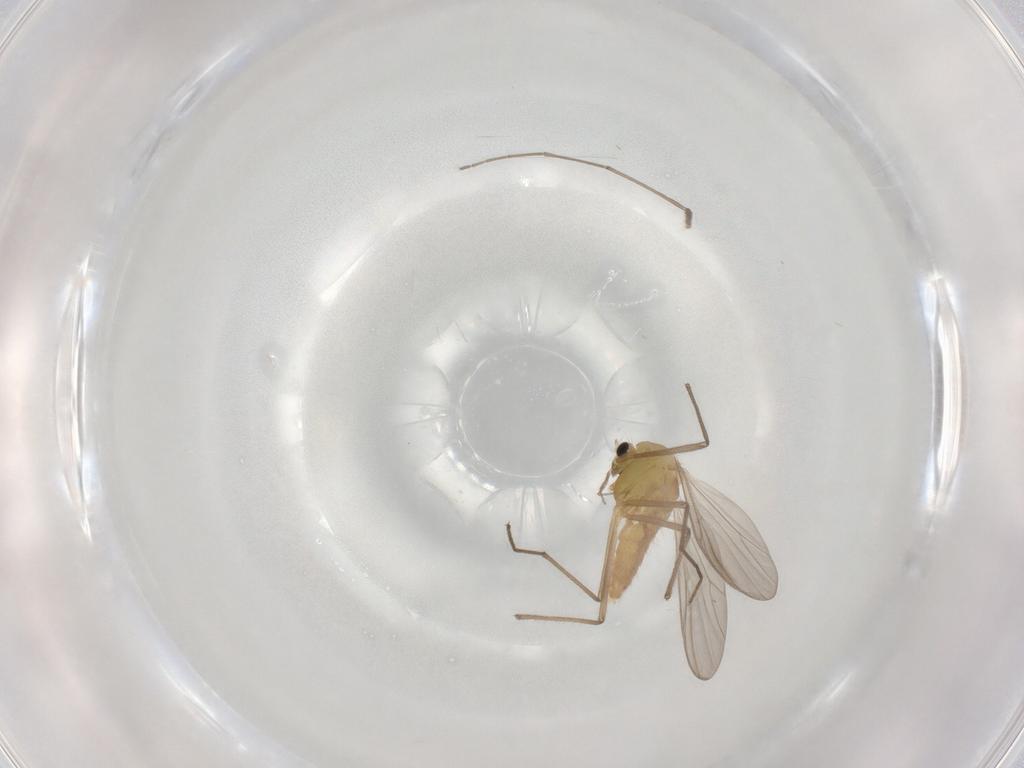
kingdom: Animalia
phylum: Arthropoda
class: Insecta
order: Diptera
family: Chironomidae
